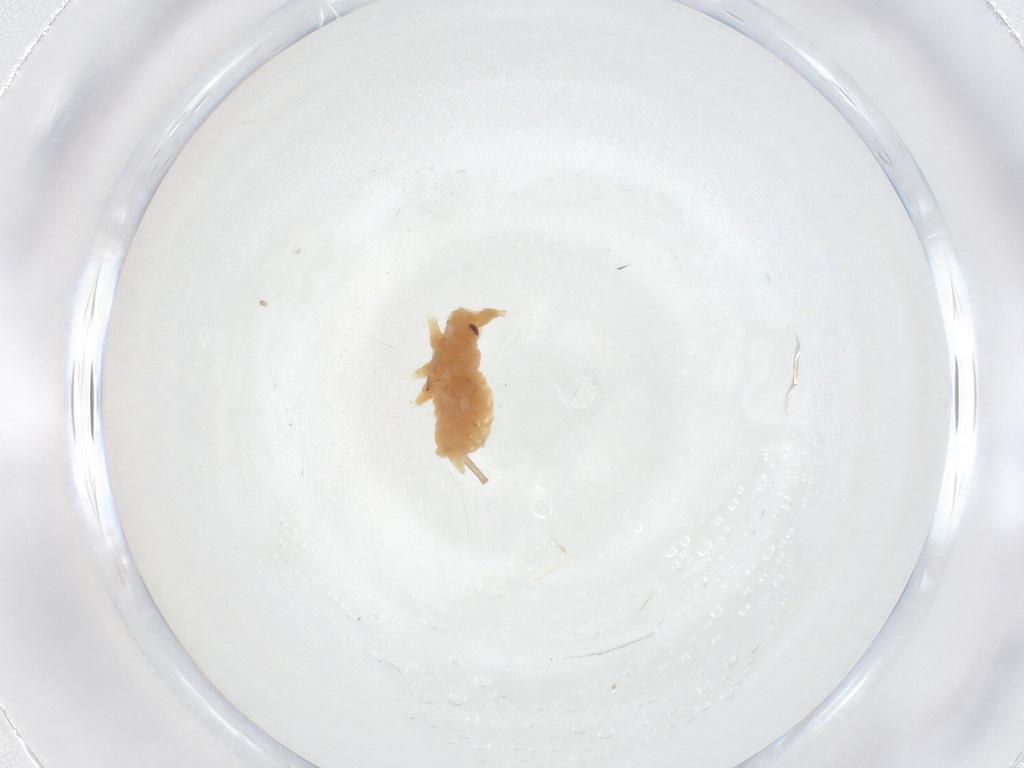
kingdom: Animalia
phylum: Arthropoda
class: Insecta
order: Hemiptera
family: Aphididae
